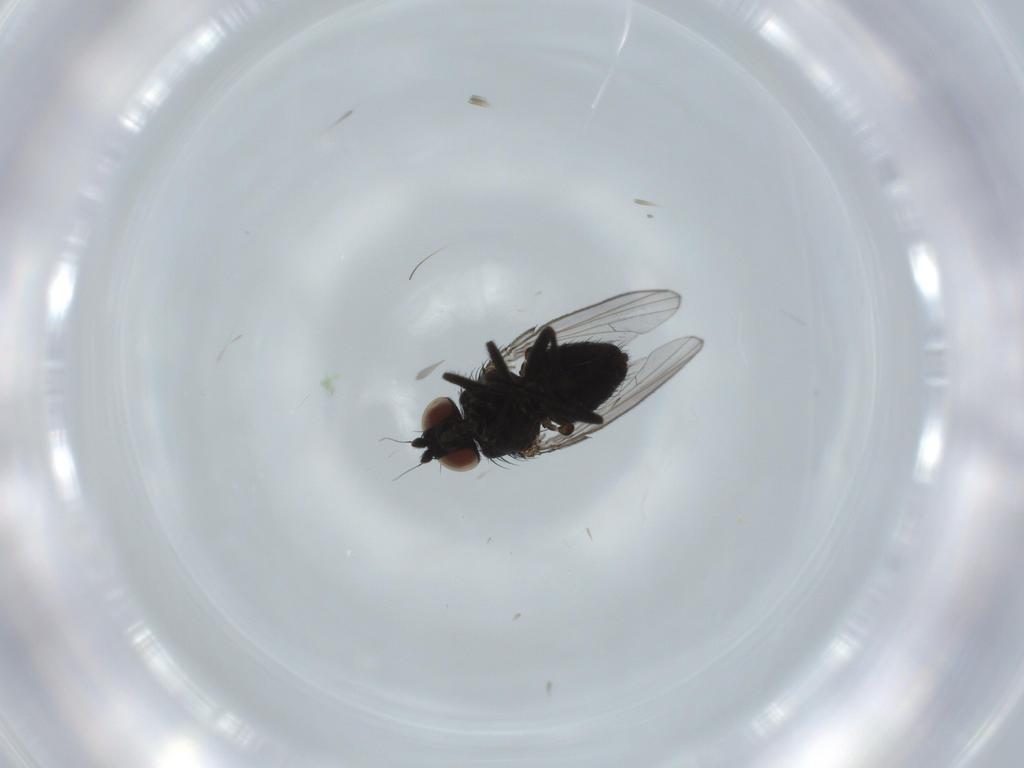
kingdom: Animalia
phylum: Arthropoda
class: Insecta
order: Diptera
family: Milichiidae
